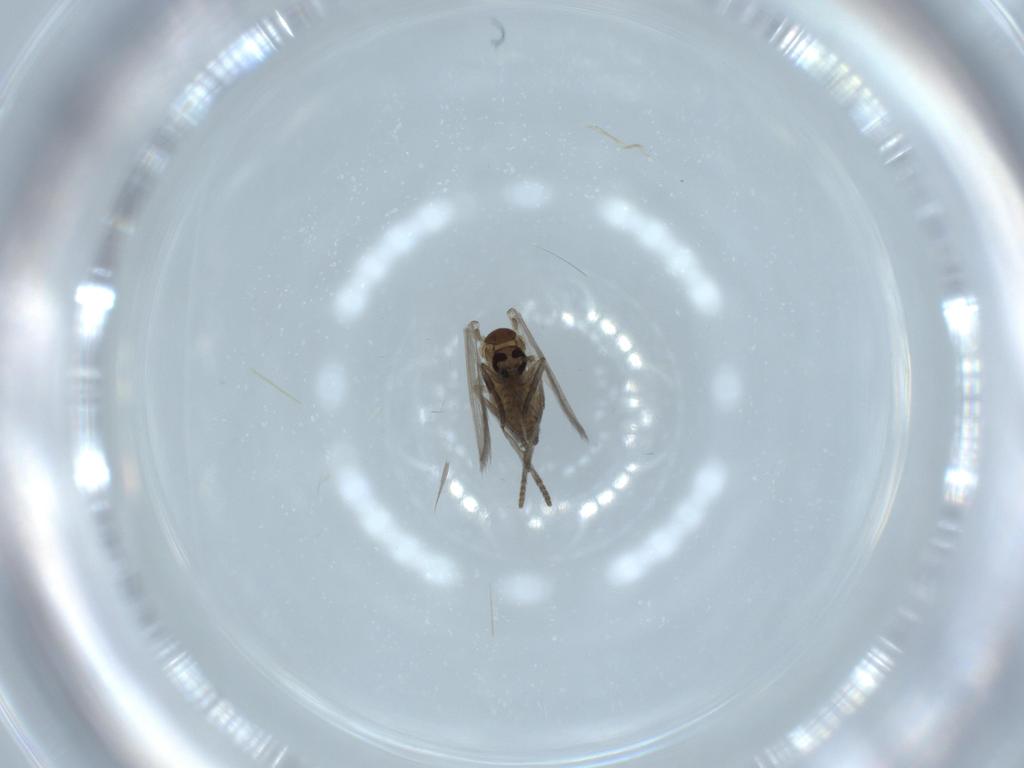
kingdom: Animalia
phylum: Arthropoda
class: Insecta
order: Diptera
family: Psychodidae
